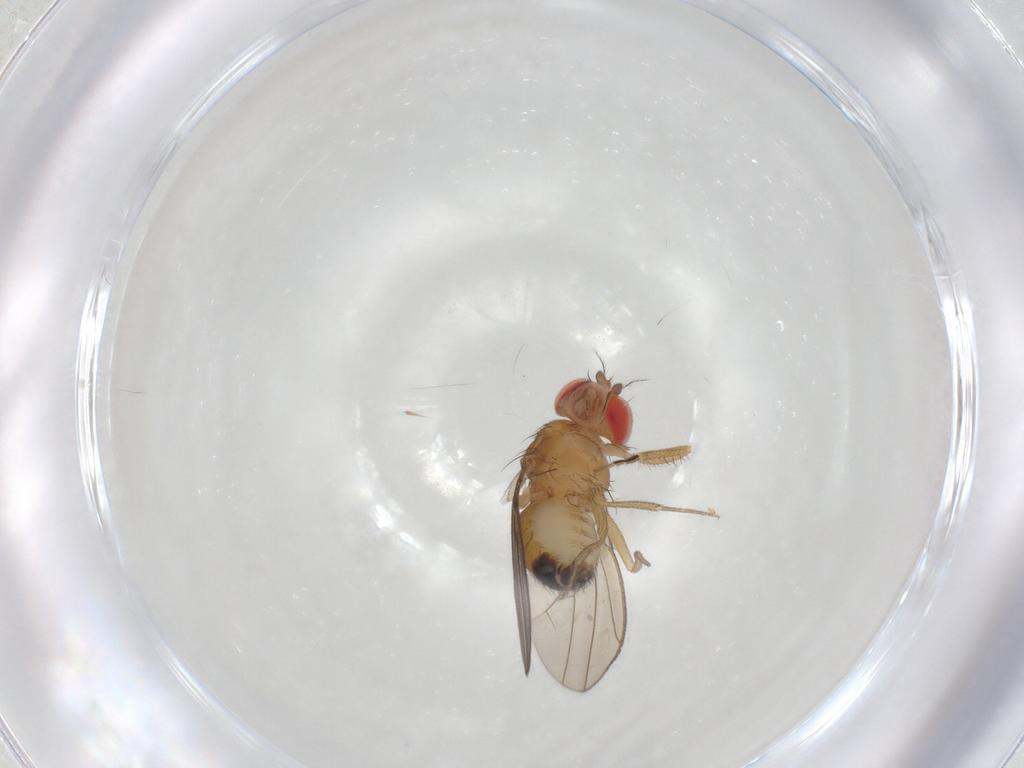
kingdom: Animalia
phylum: Arthropoda
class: Insecta
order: Diptera
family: Drosophilidae
